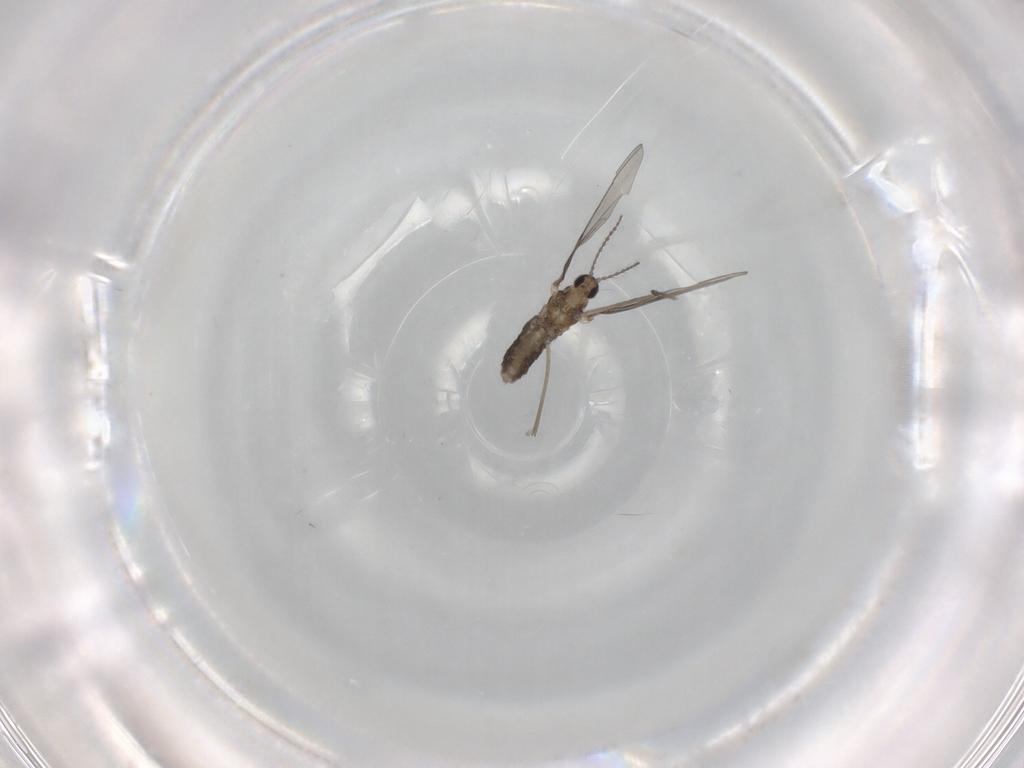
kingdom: Animalia
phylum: Arthropoda
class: Insecta
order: Diptera
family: Cecidomyiidae
